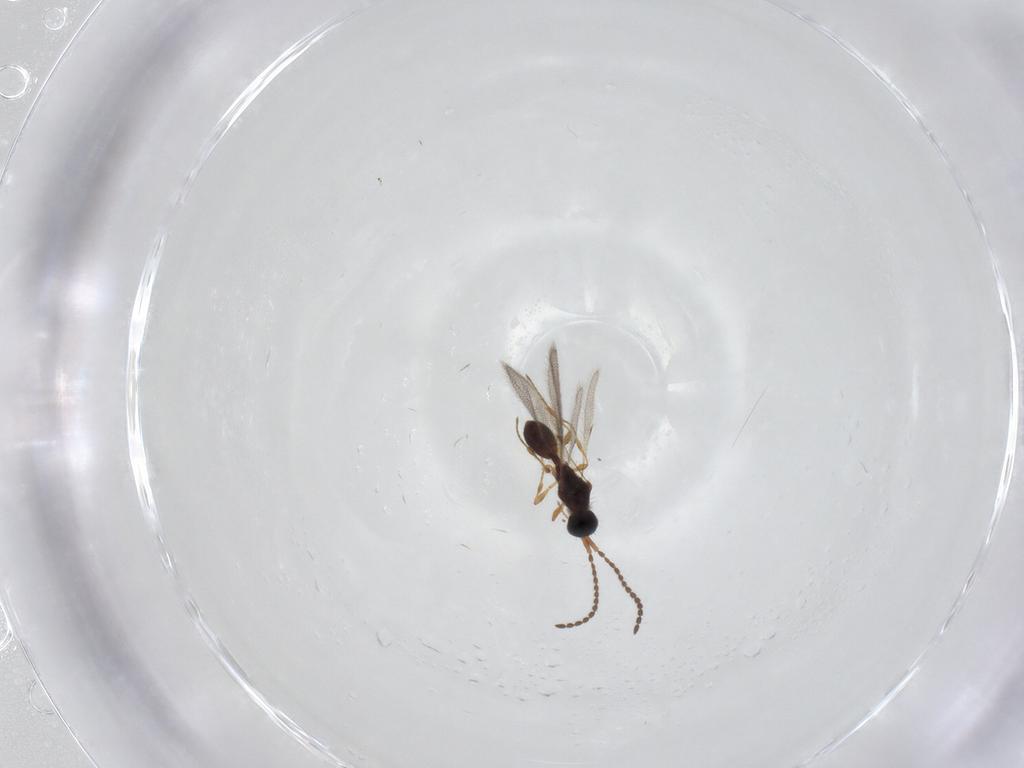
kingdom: Animalia
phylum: Arthropoda
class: Insecta
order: Hymenoptera
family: Diapriidae
